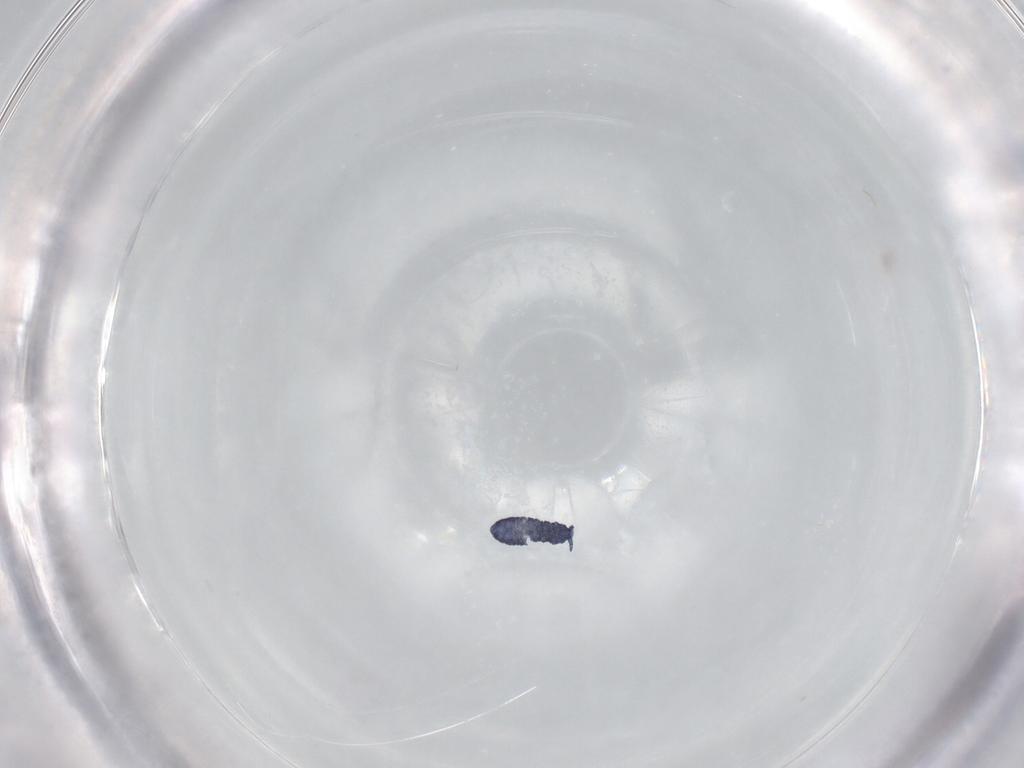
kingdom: Animalia
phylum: Arthropoda
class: Collembola
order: Poduromorpha
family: Hypogastruridae
